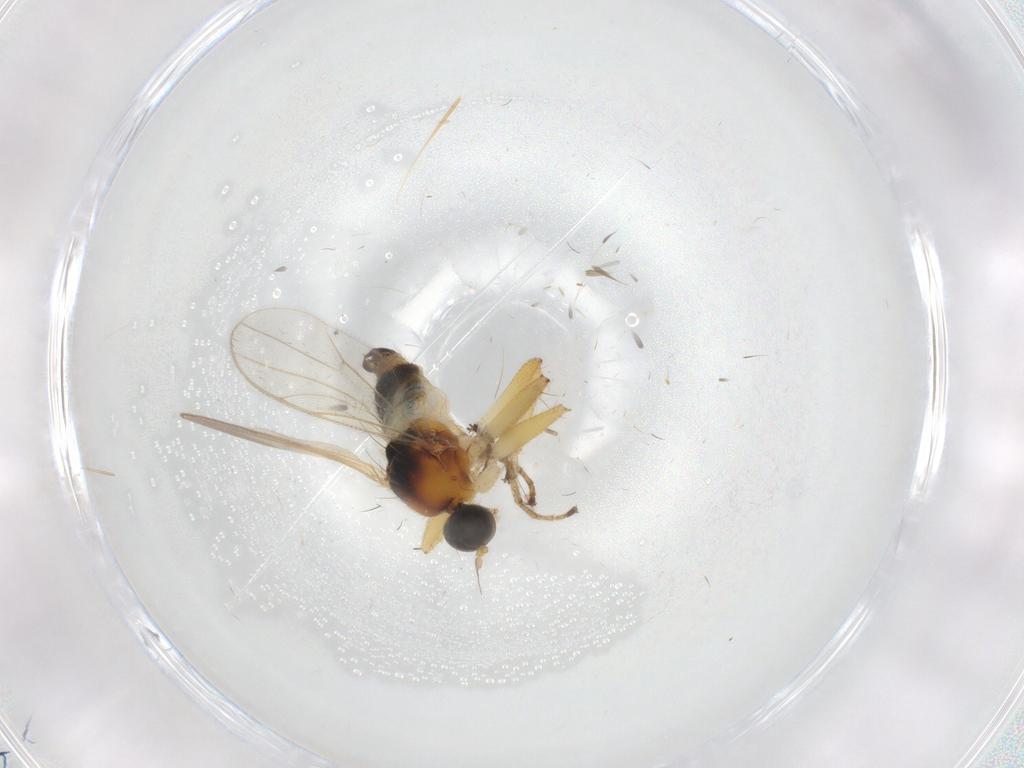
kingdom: Animalia
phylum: Arthropoda
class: Insecta
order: Diptera
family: Hybotidae
